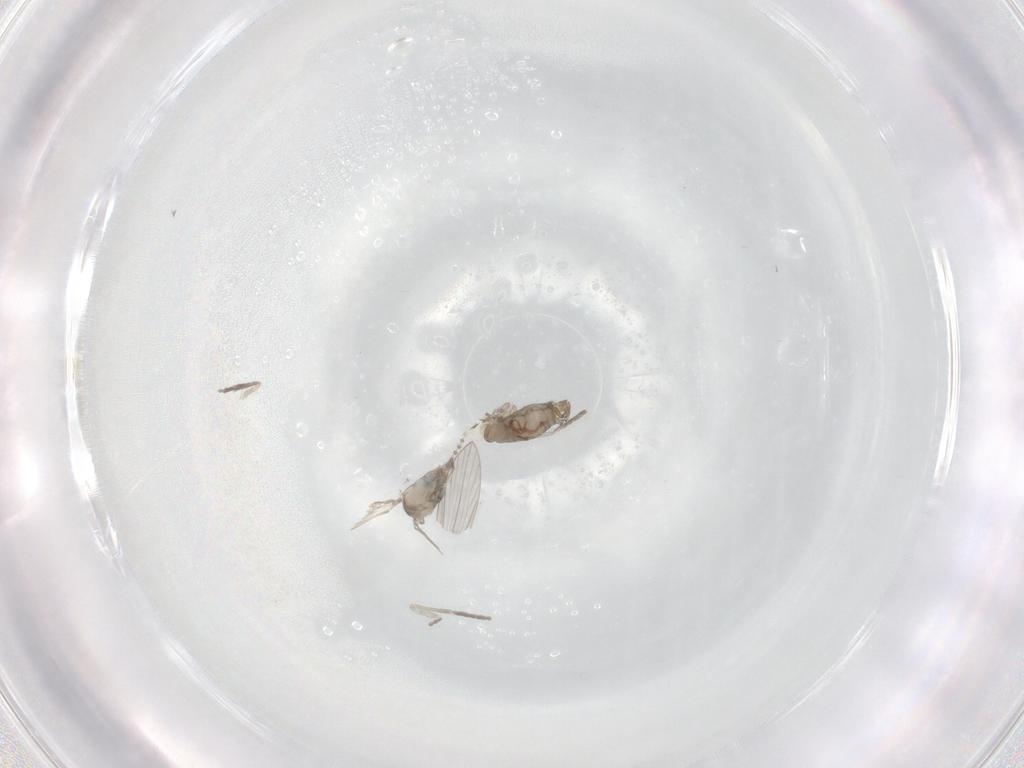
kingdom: Animalia
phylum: Arthropoda
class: Insecta
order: Diptera
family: Psychodidae
